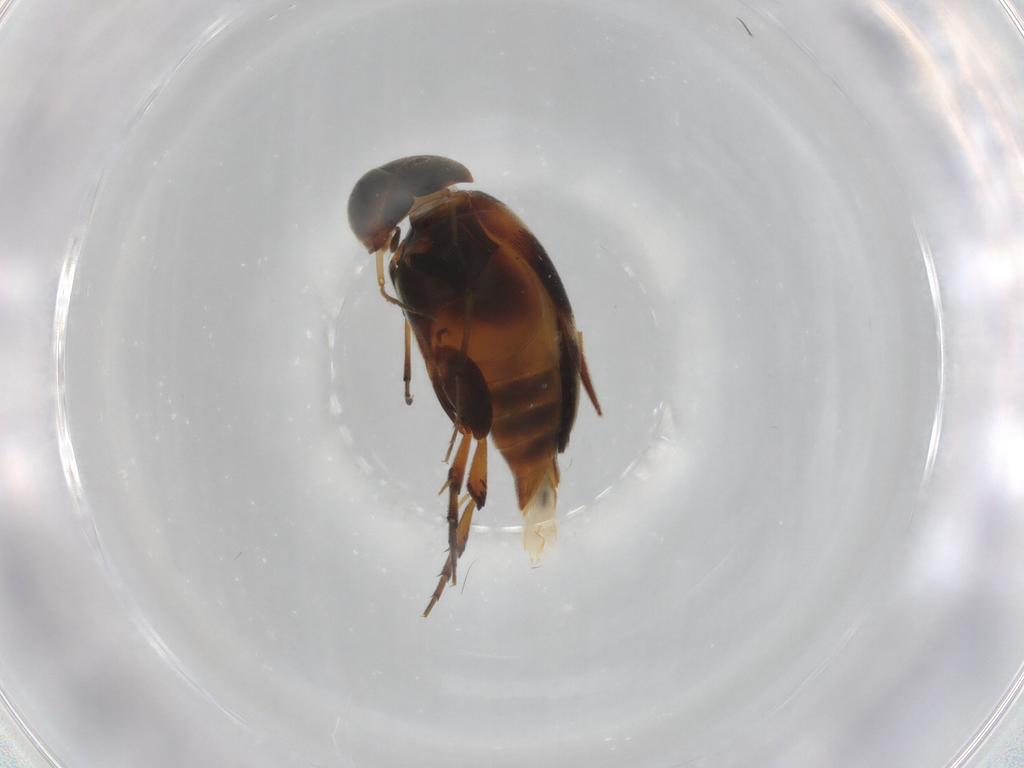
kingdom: Animalia
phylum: Arthropoda
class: Insecta
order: Coleoptera
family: Mordellidae
